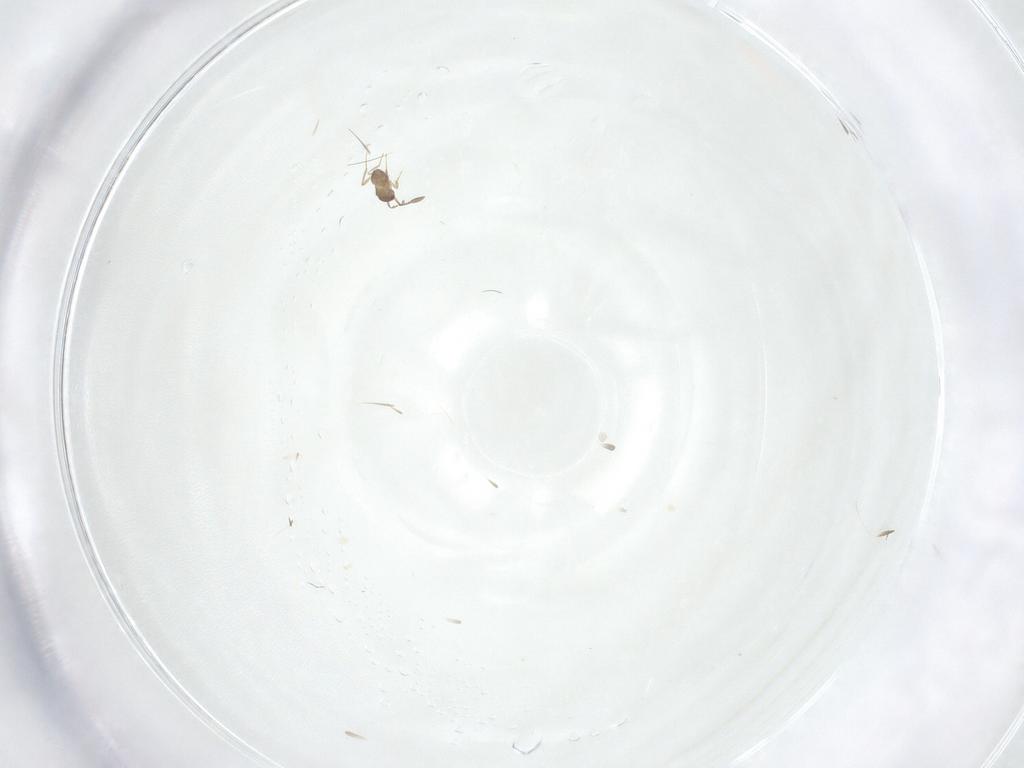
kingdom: Animalia
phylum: Arthropoda
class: Insecta
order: Hymenoptera
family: Mymaridae
